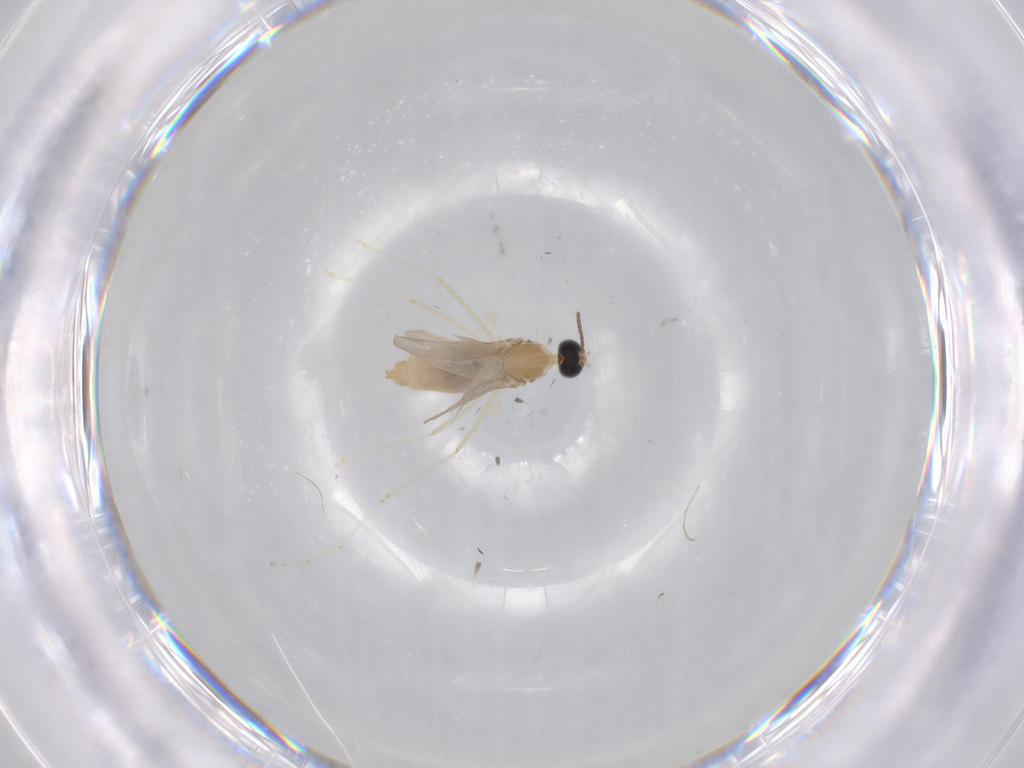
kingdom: Animalia
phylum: Arthropoda
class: Insecta
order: Diptera
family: Cecidomyiidae
